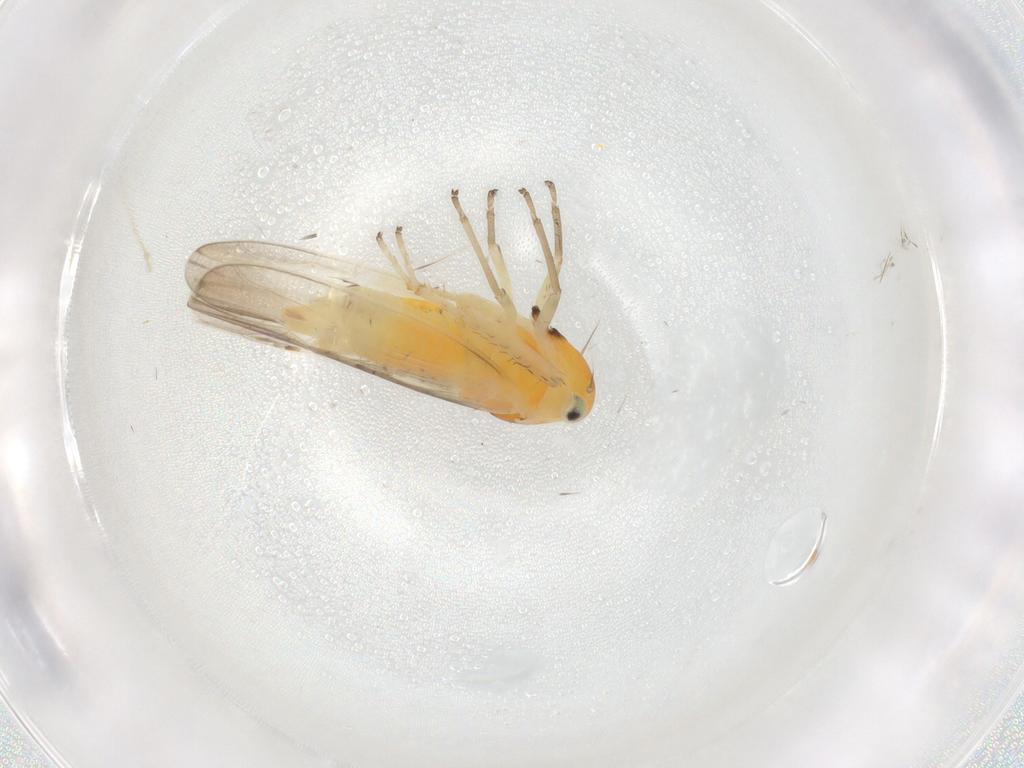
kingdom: Animalia
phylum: Arthropoda
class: Insecta
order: Hemiptera
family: Cicadellidae
